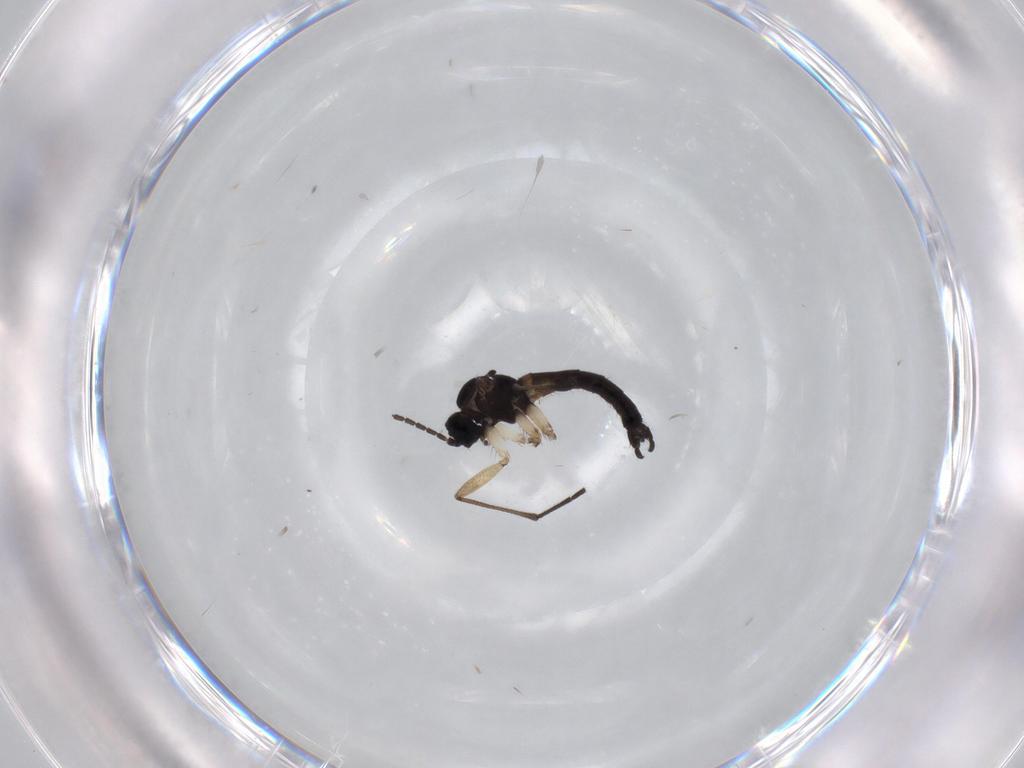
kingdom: Animalia
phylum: Arthropoda
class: Insecta
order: Diptera
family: Sciaridae
